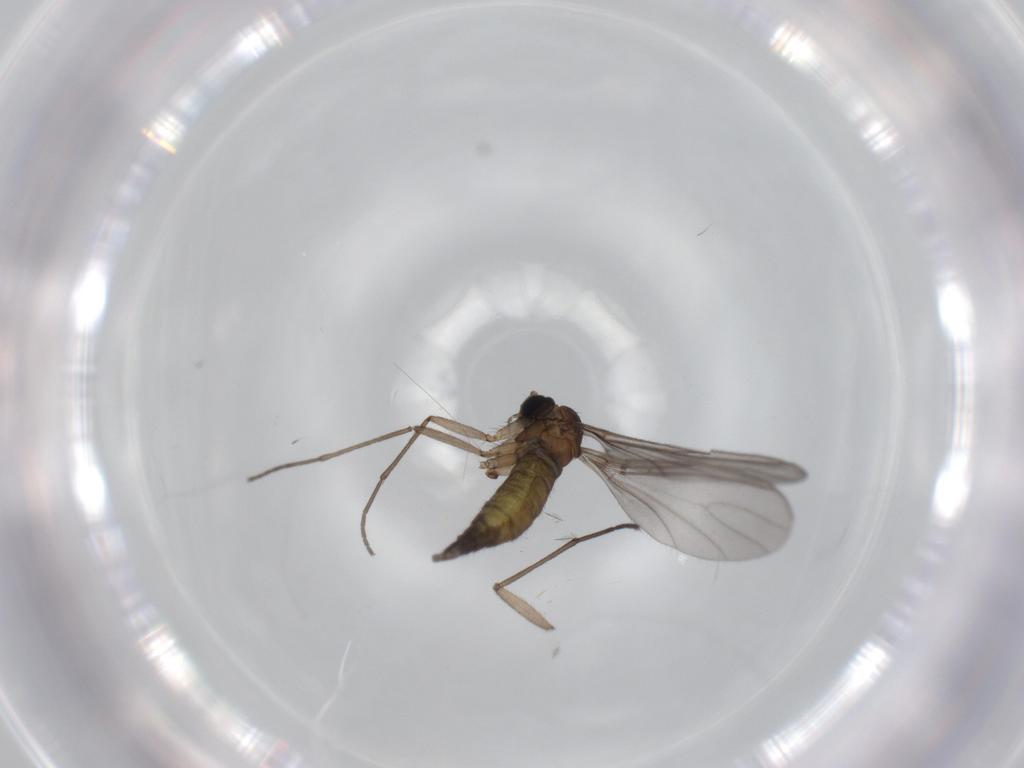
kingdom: Animalia
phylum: Arthropoda
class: Insecta
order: Diptera
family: Sciaridae
